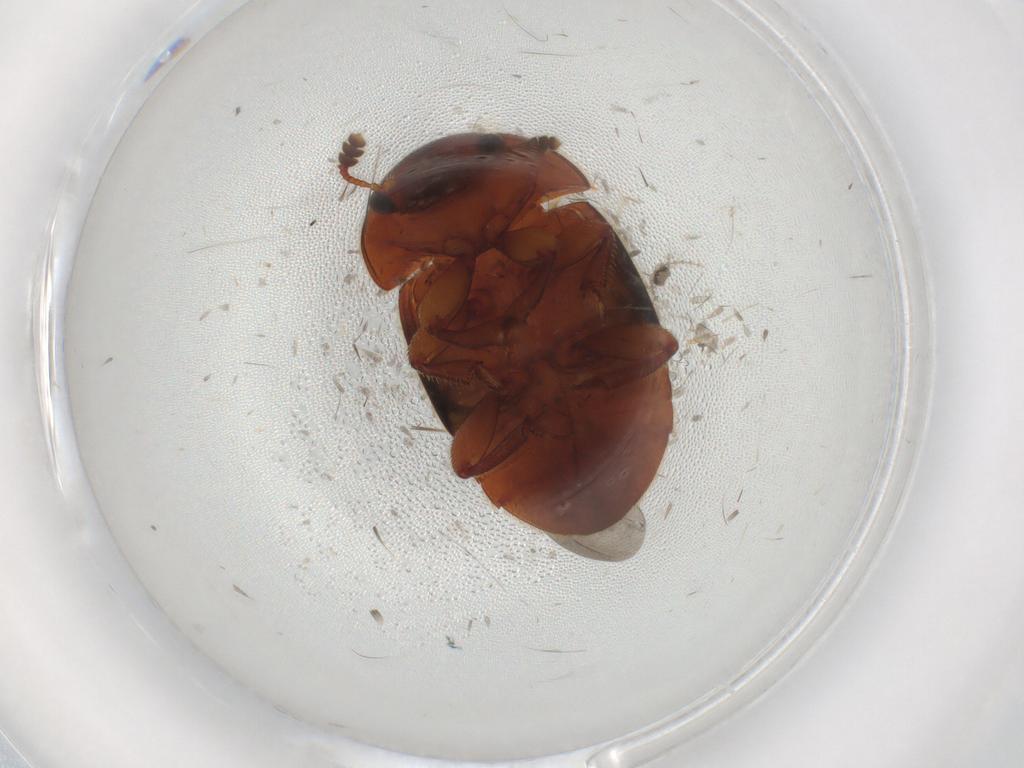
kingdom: Animalia
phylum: Arthropoda
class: Insecta
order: Coleoptera
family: Nitidulidae
